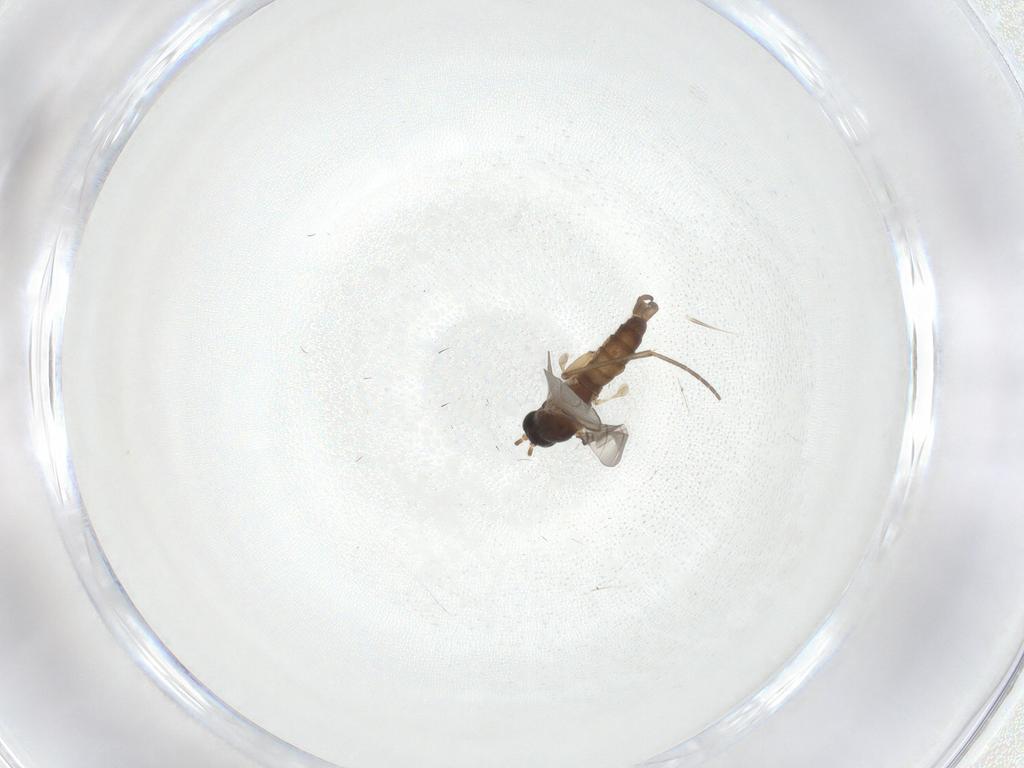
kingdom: Animalia
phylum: Arthropoda
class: Insecta
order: Diptera
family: Sciaridae
